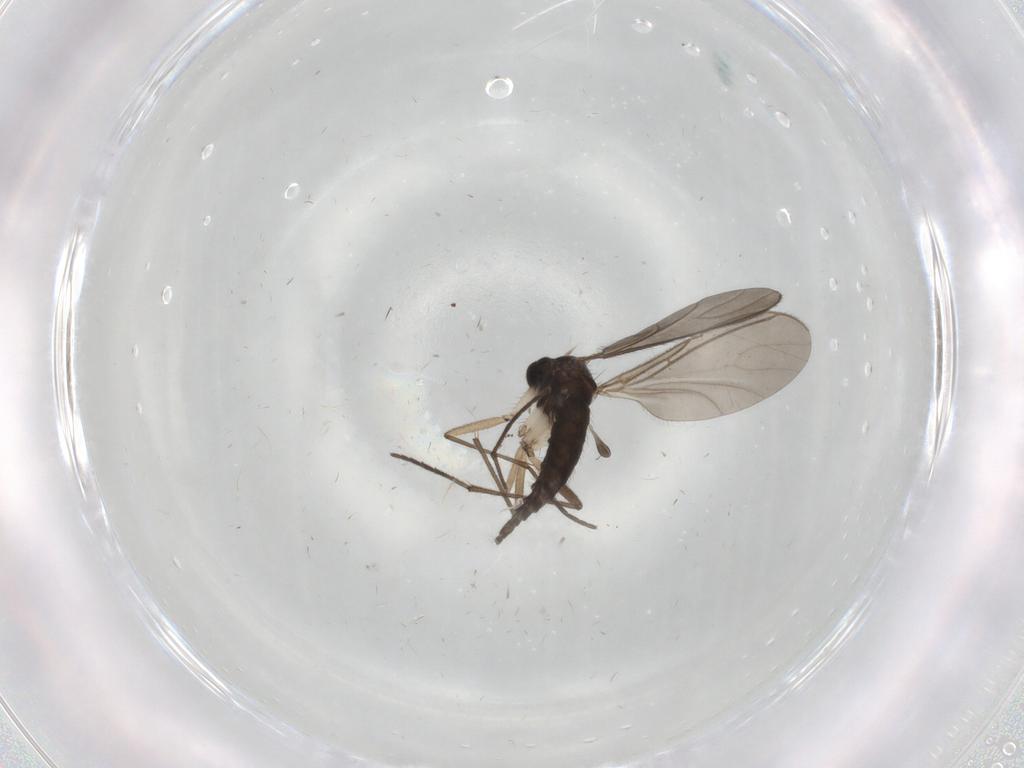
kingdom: Animalia
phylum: Arthropoda
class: Insecta
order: Diptera
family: Sciaridae
